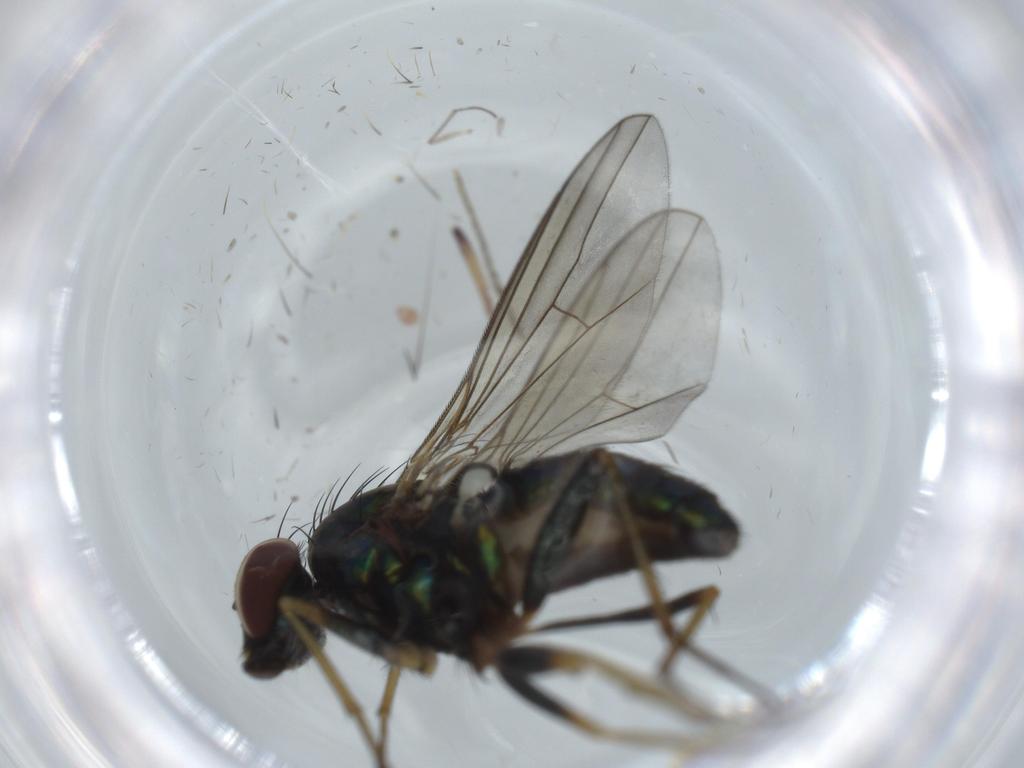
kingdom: Animalia
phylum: Arthropoda
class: Insecta
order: Diptera
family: Dolichopodidae
